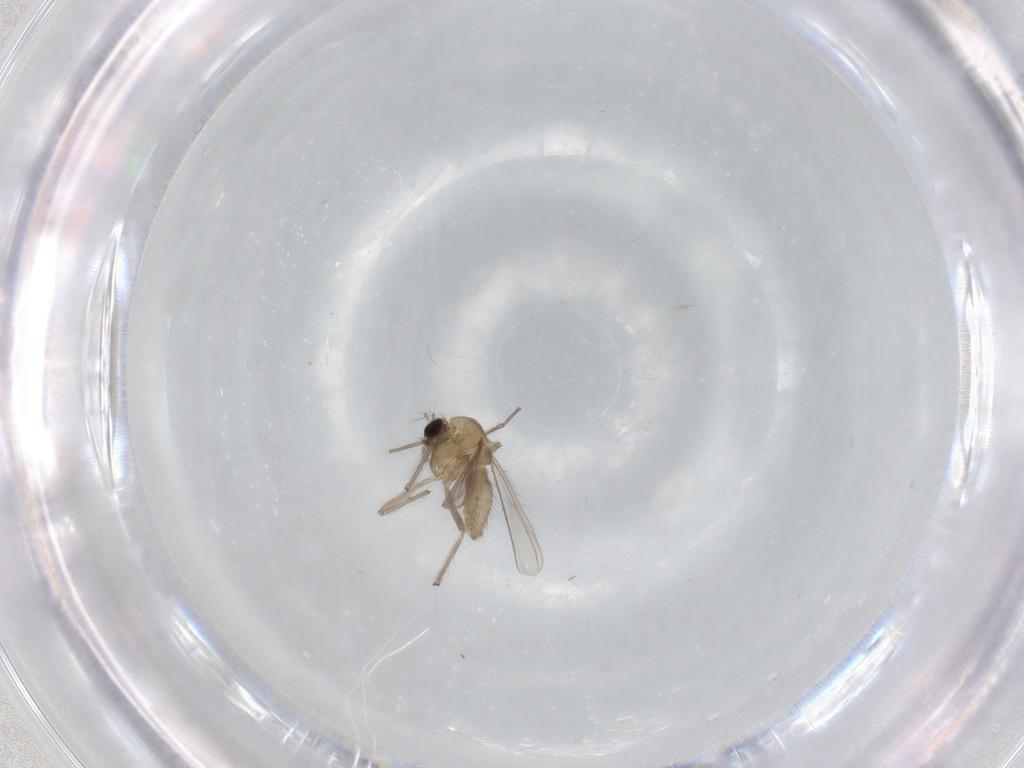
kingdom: Animalia
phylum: Arthropoda
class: Insecta
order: Diptera
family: Chironomidae
